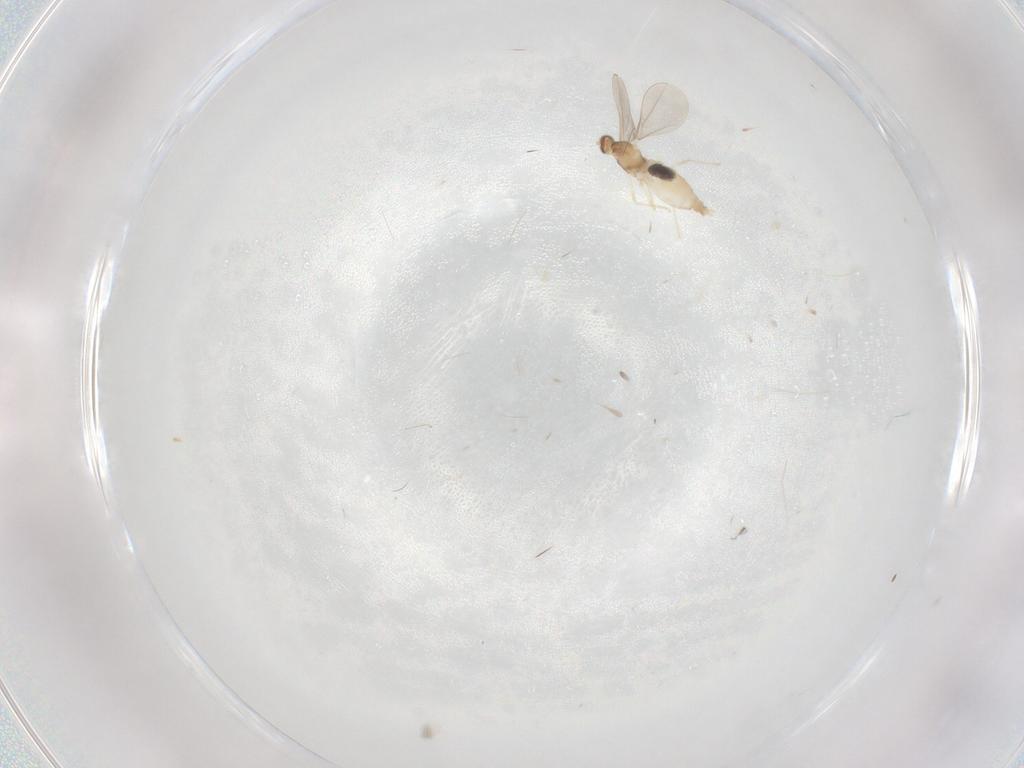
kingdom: Animalia
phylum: Arthropoda
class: Insecta
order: Diptera
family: Cecidomyiidae
